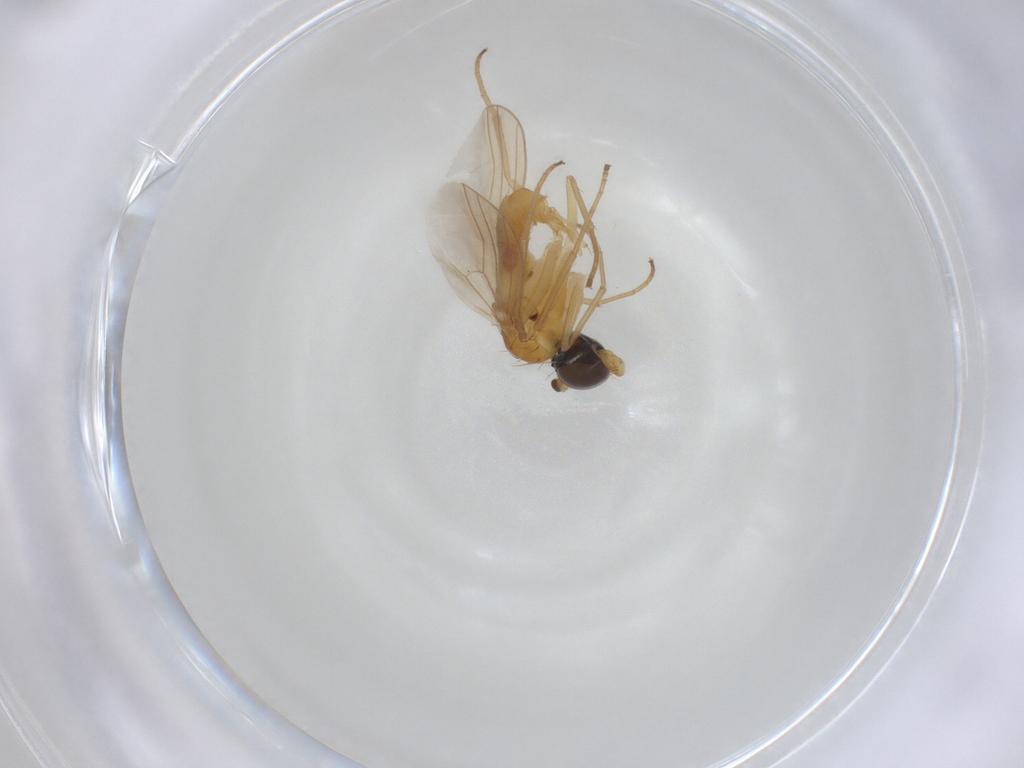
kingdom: Animalia
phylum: Arthropoda
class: Insecta
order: Diptera
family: Dolichopodidae
